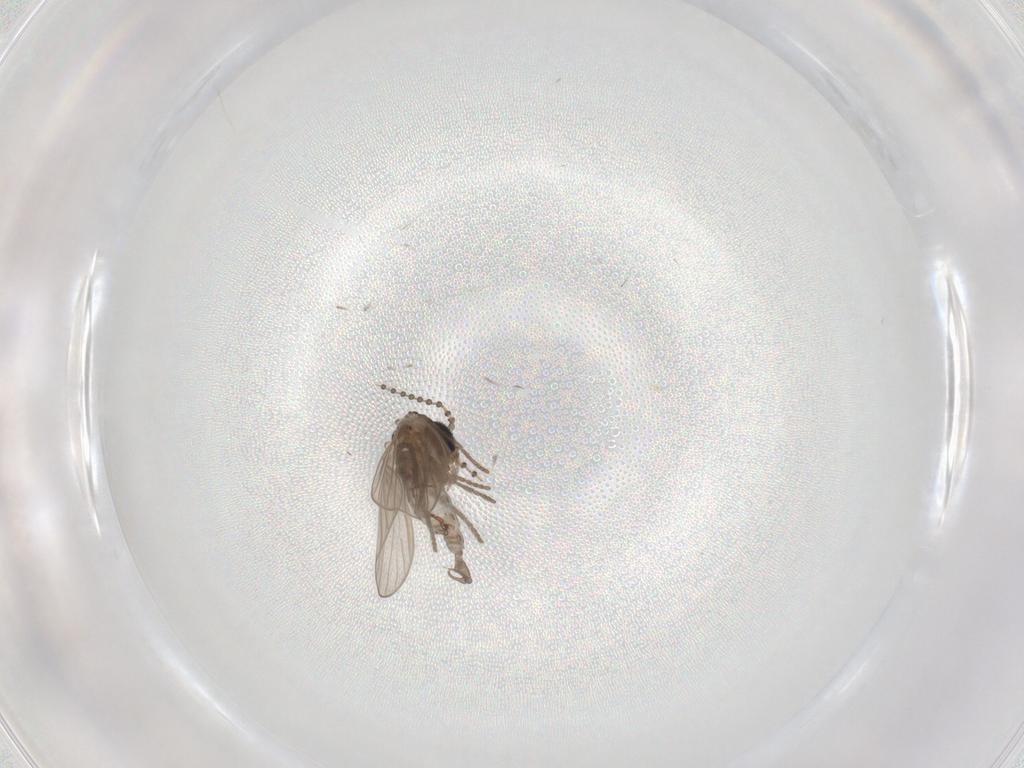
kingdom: Animalia
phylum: Arthropoda
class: Insecta
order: Diptera
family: Psychodidae
